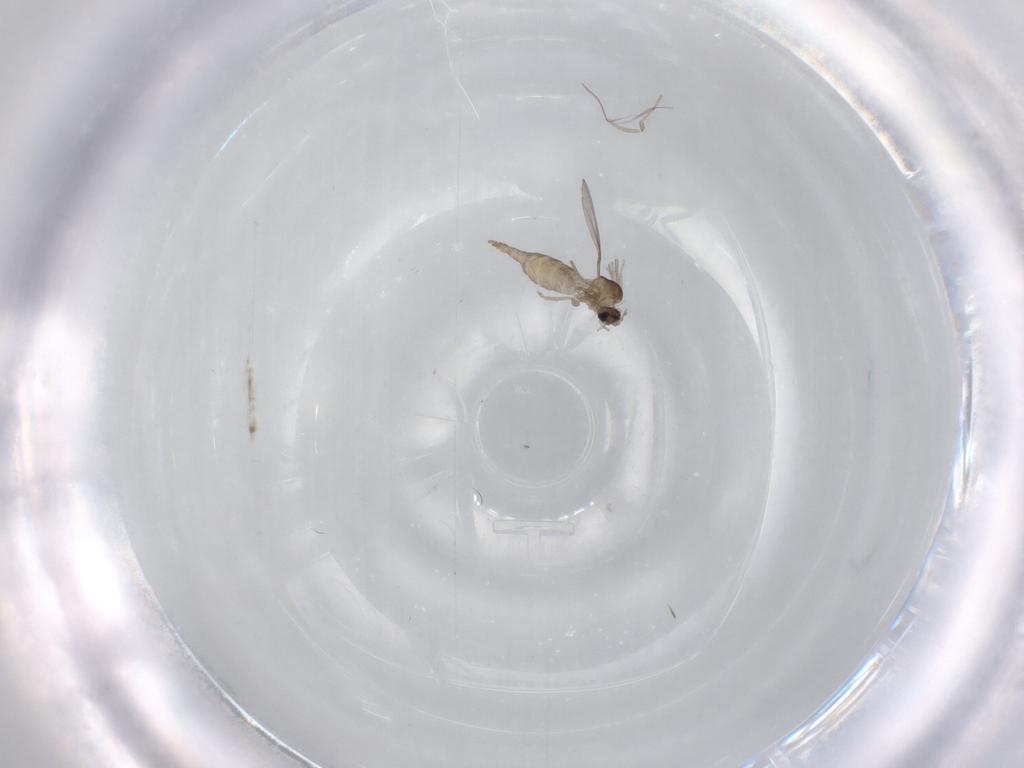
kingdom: Animalia
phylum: Arthropoda
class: Insecta
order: Diptera
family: Cecidomyiidae
